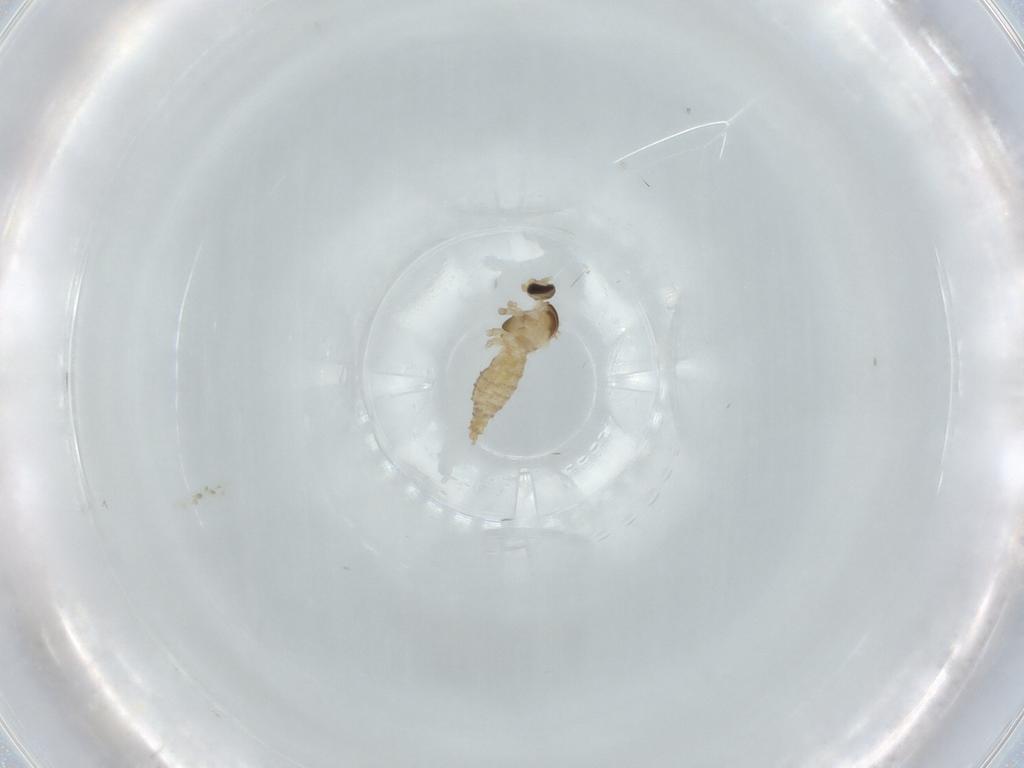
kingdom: Animalia
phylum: Arthropoda
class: Insecta
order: Diptera
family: Cecidomyiidae
